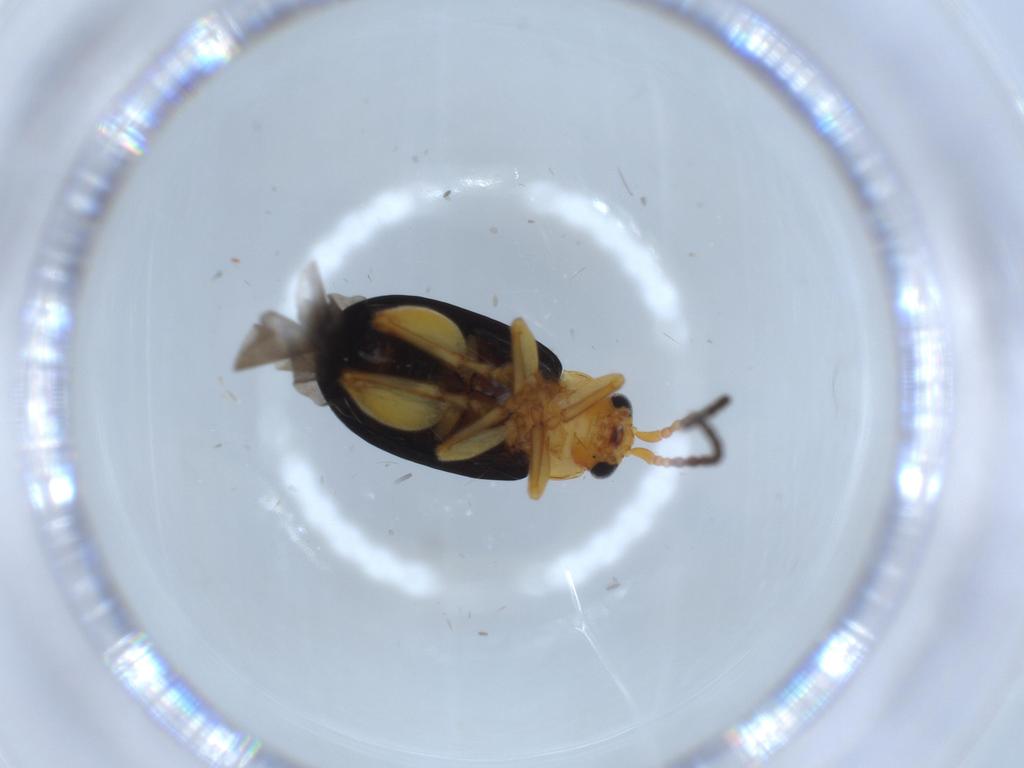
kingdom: Animalia
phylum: Arthropoda
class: Insecta
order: Coleoptera
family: Chrysomelidae
